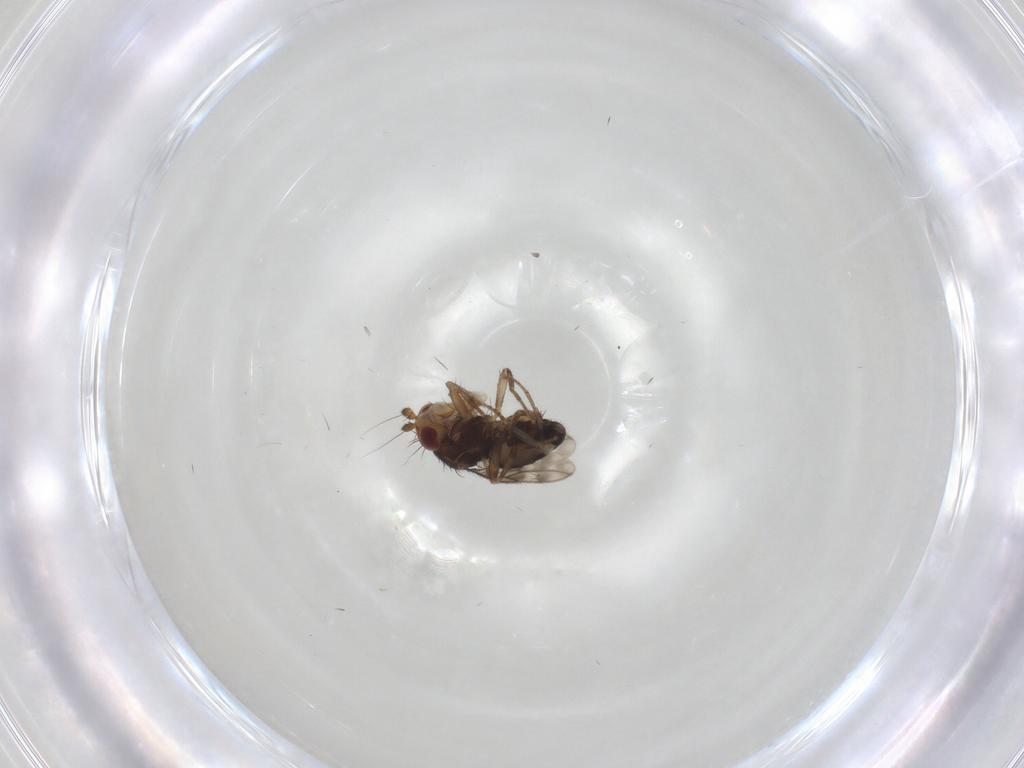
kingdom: Animalia
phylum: Arthropoda
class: Insecta
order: Diptera
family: Sphaeroceridae
